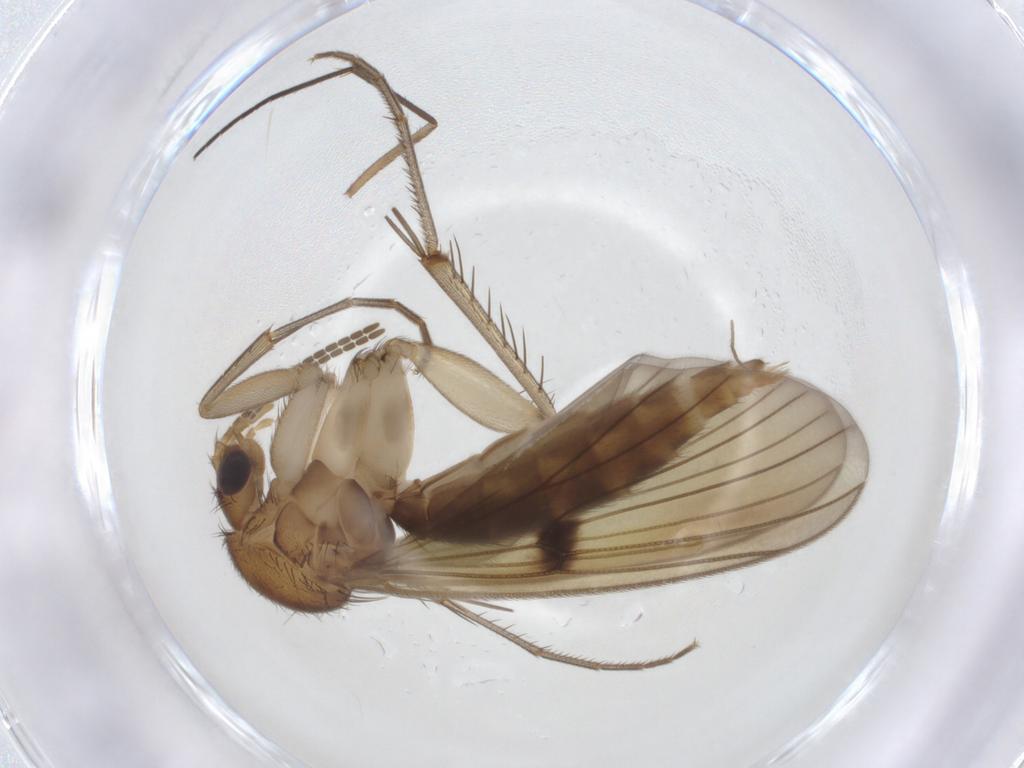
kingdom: Animalia
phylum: Arthropoda
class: Insecta
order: Diptera
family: Mycetophilidae
